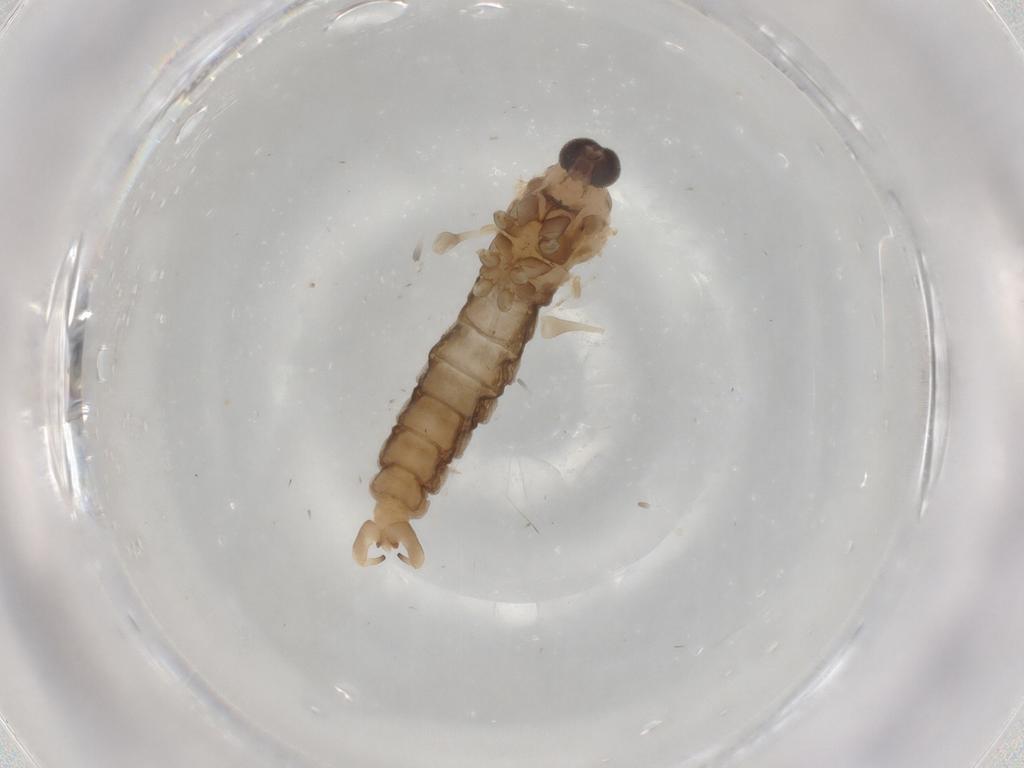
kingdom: Animalia
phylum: Arthropoda
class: Insecta
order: Diptera
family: Cecidomyiidae
